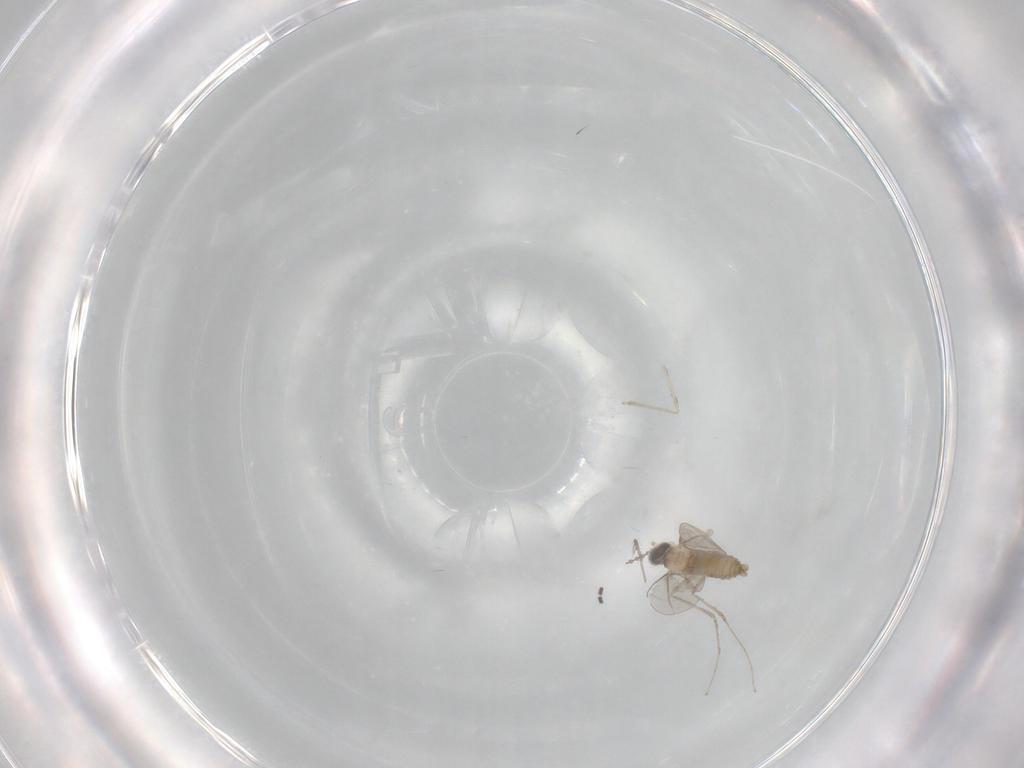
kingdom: Animalia
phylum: Arthropoda
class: Insecta
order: Diptera
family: Cecidomyiidae
